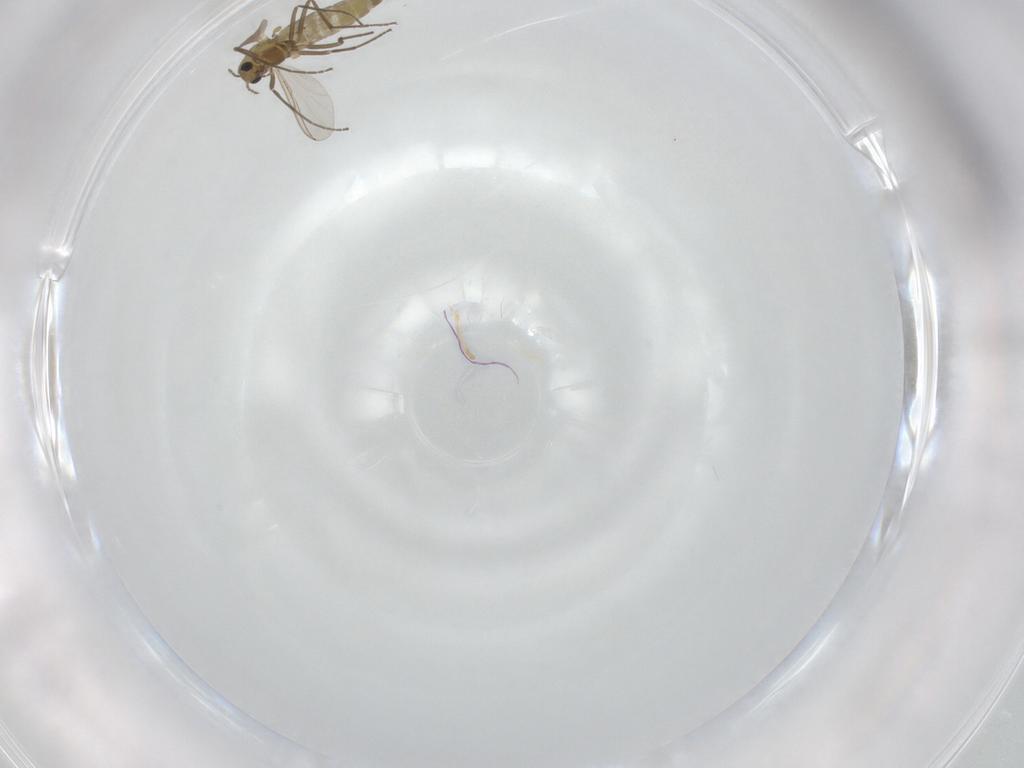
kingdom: Animalia
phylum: Arthropoda
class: Insecta
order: Diptera
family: Chironomidae
